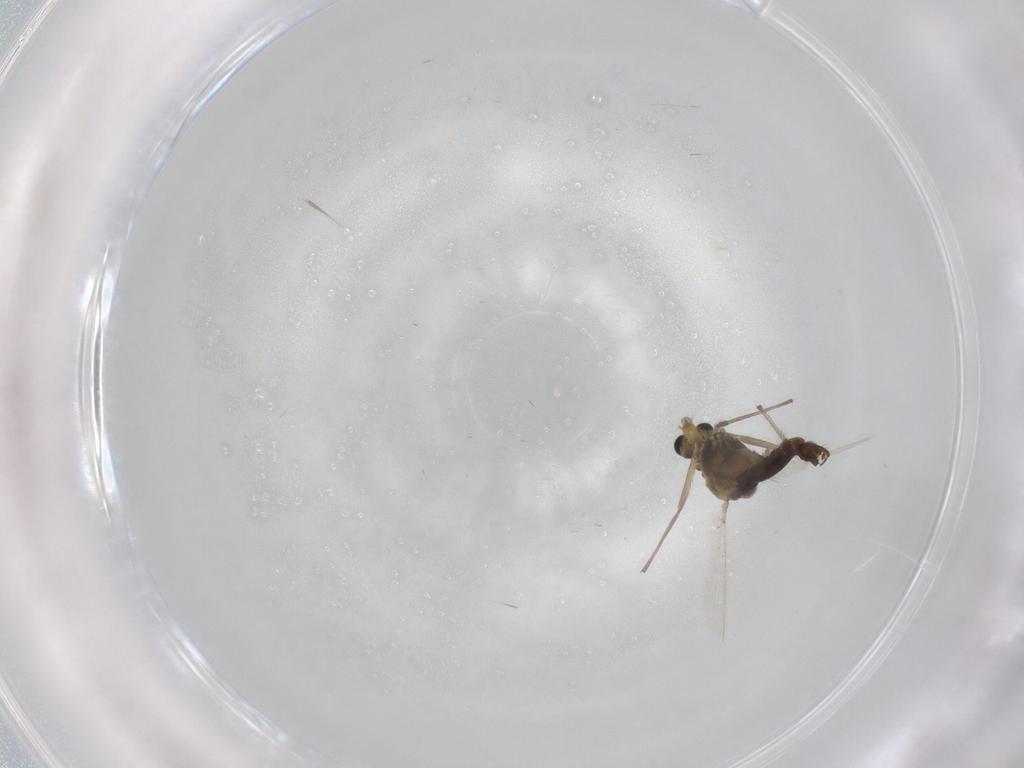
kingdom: Animalia
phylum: Arthropoda
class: Insecta
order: Diptera
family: Chironomidae
